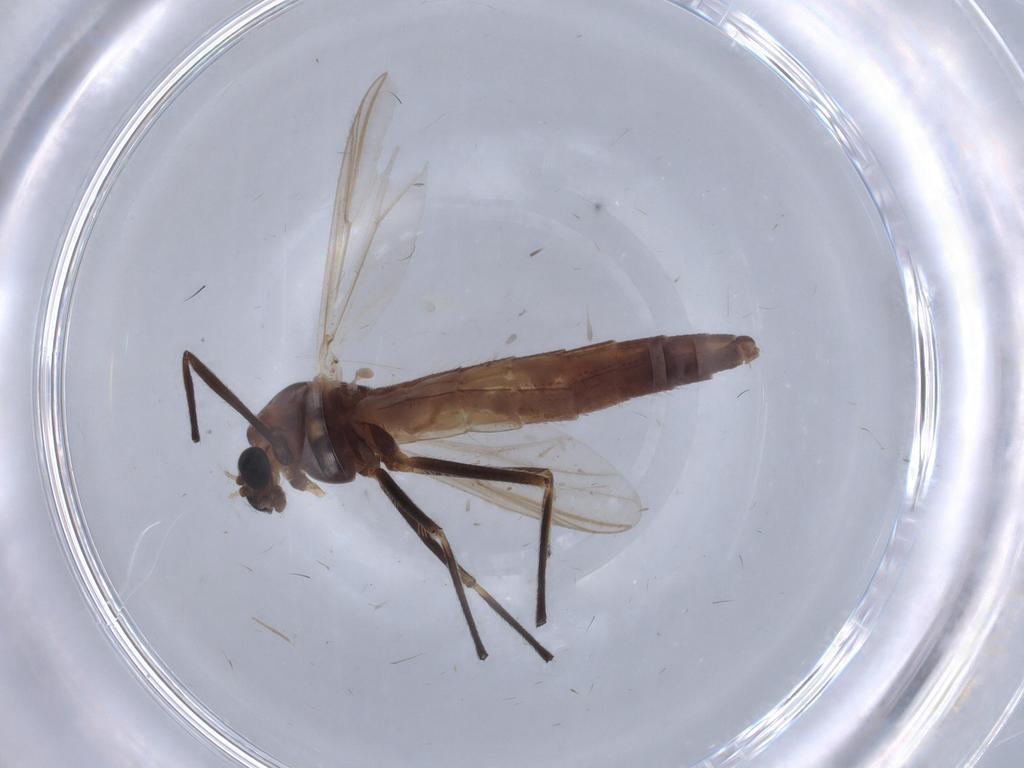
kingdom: Animalia
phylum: Arthropoda
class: Insecta
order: Diptera
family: Chironomidae
